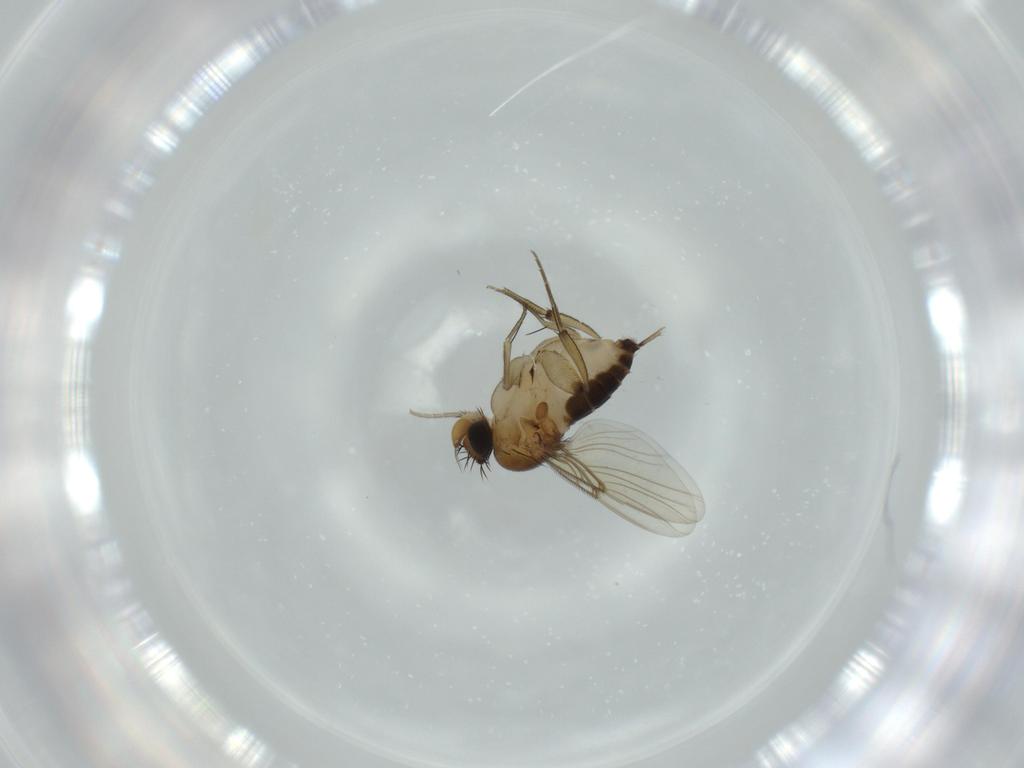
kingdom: Animalia
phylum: Arthropoda
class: Insecta
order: Diptera
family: Phoridae
